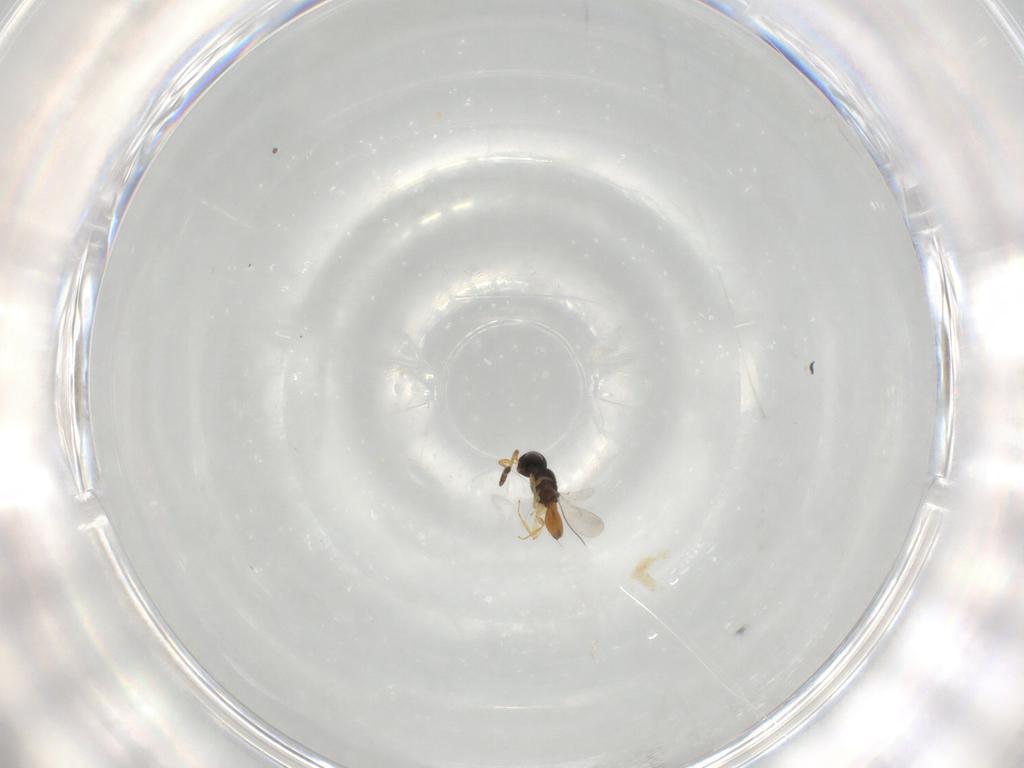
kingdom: Animalia
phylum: Arthropoda
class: Insecta
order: Hymenoptera
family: Scelionidae
